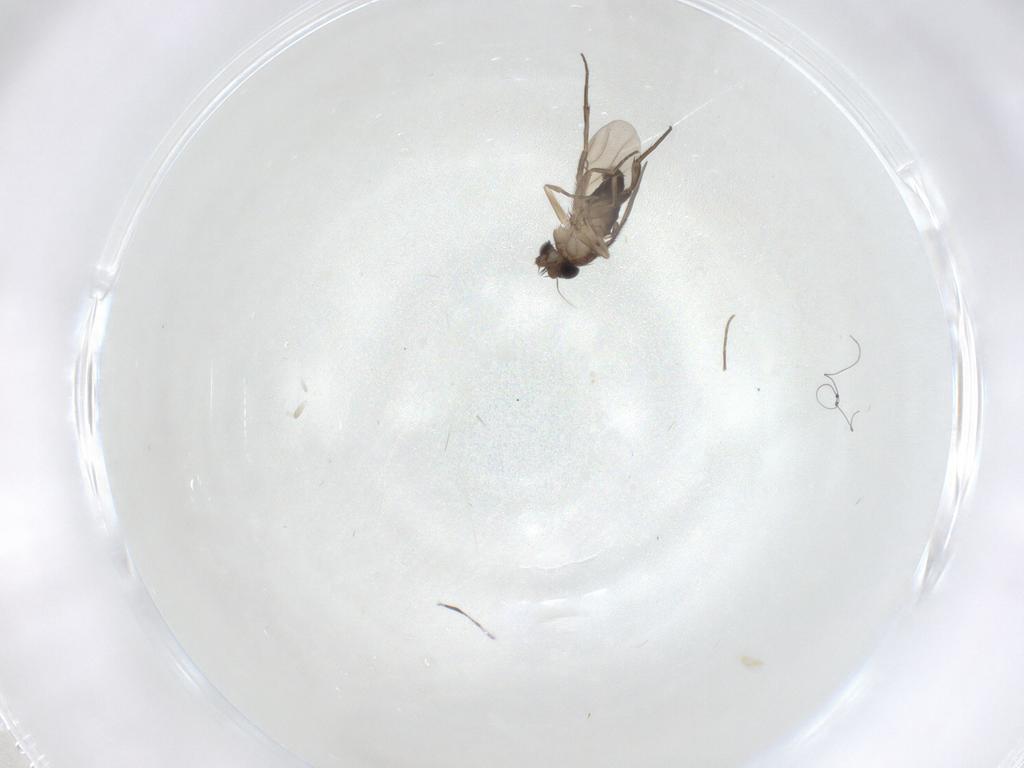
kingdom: Animalia
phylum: Arthropoda
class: Insecta
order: Diptera
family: Phoridae
